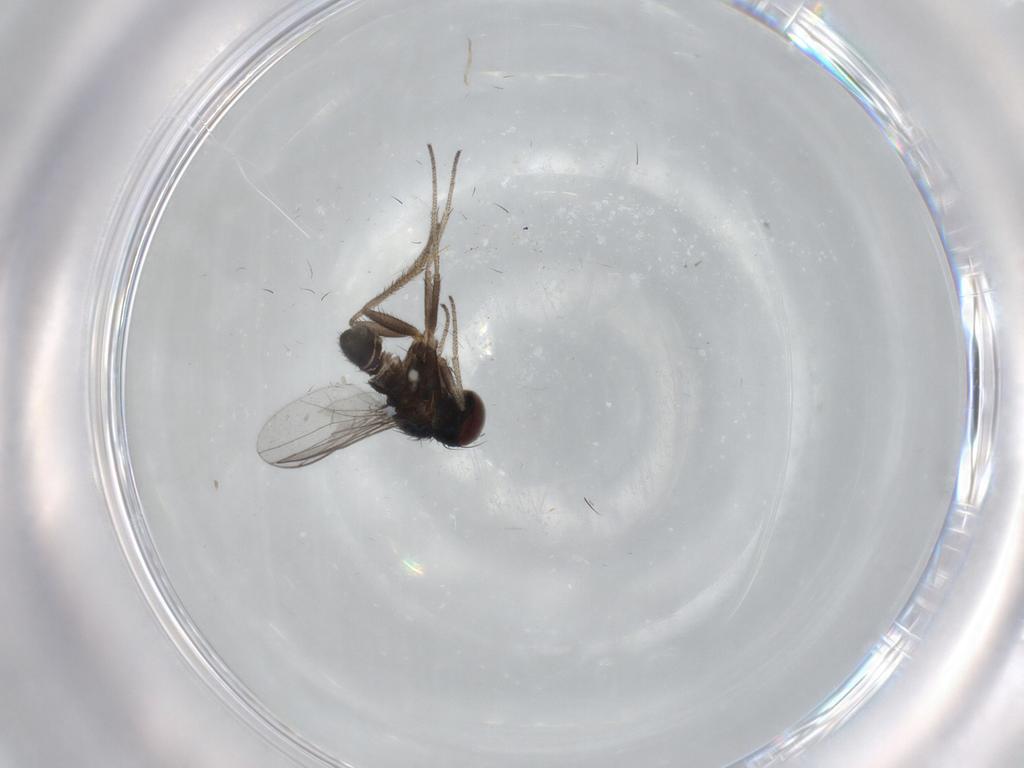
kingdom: Animalia
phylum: Arthropoda
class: Insecta
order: Diptera
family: Dolichopodidae
